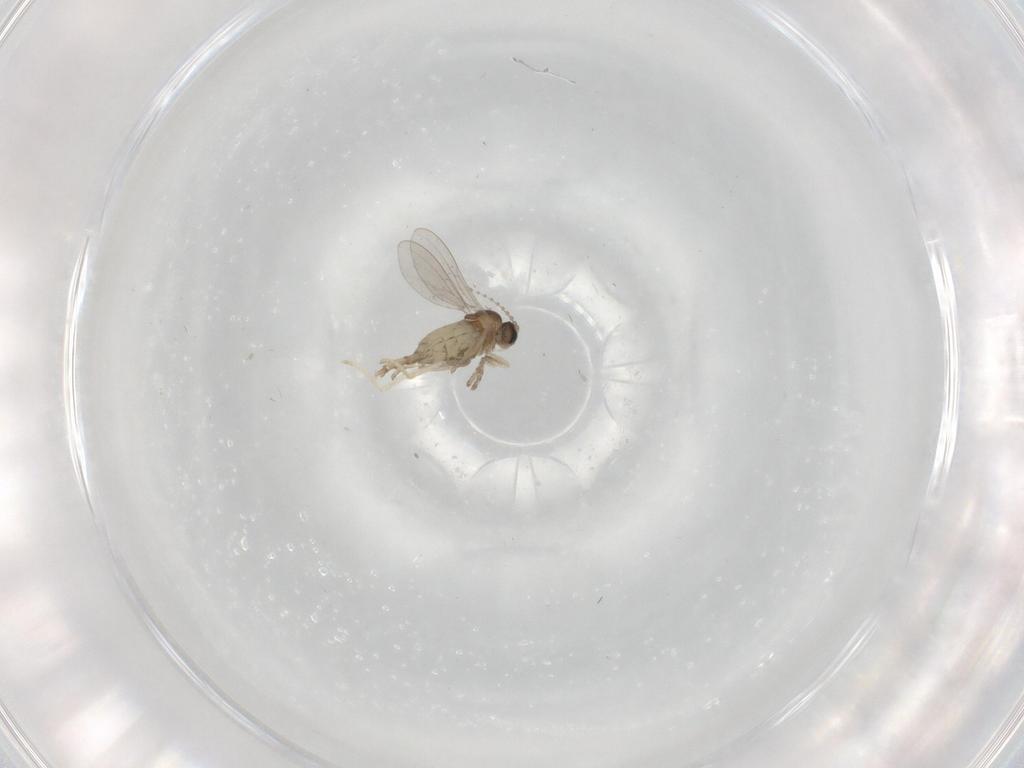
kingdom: Animalia
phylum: Arthropoda
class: Insecta
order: Diptera
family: Cecidomyiidae
